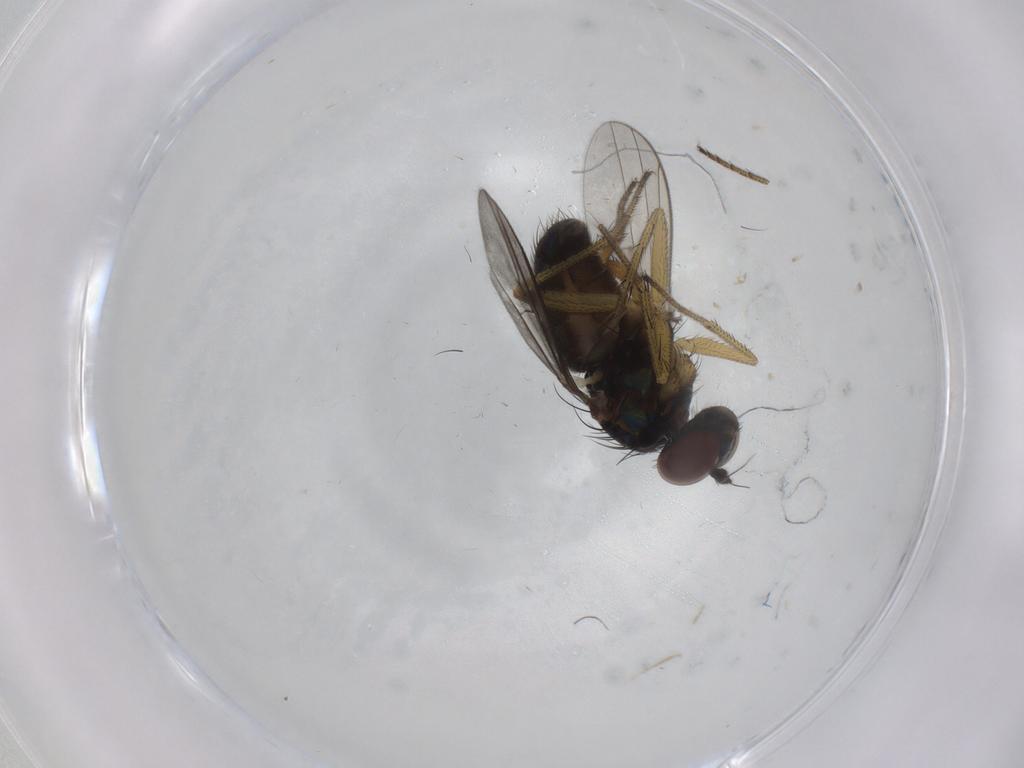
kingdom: Animalia
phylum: Arthropoda
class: Insecta
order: Diptera
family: Dolichopodidae
